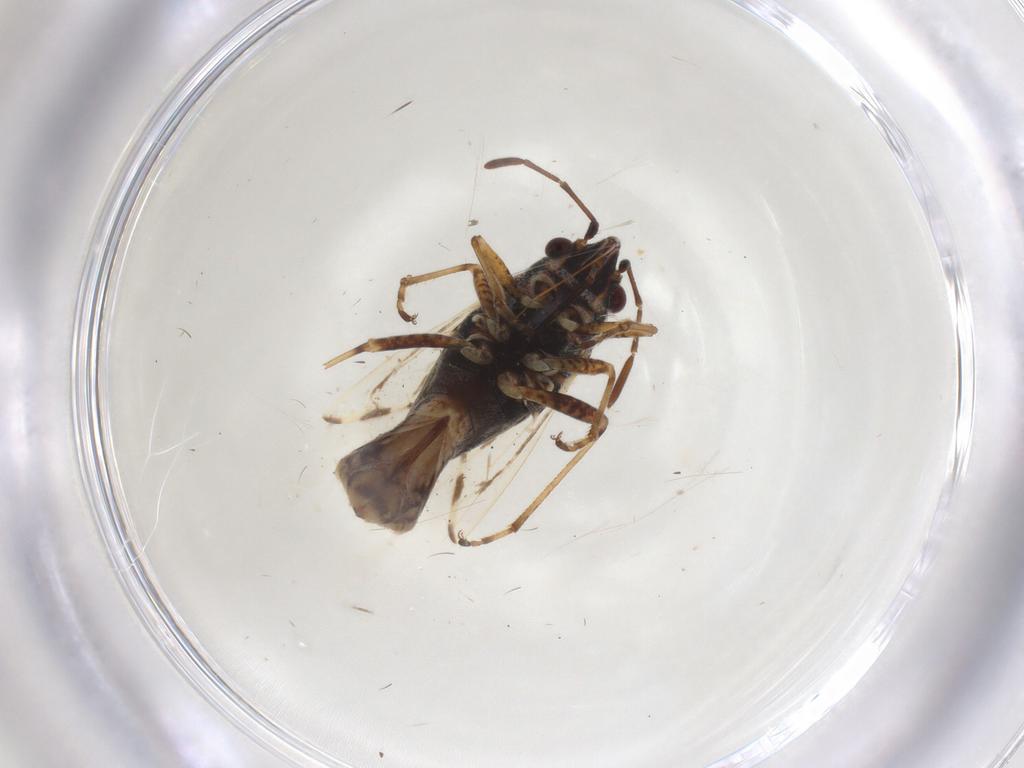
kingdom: Animalia
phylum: Arthropoda
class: Insecta
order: Hemiptera
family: Lygaeidae
